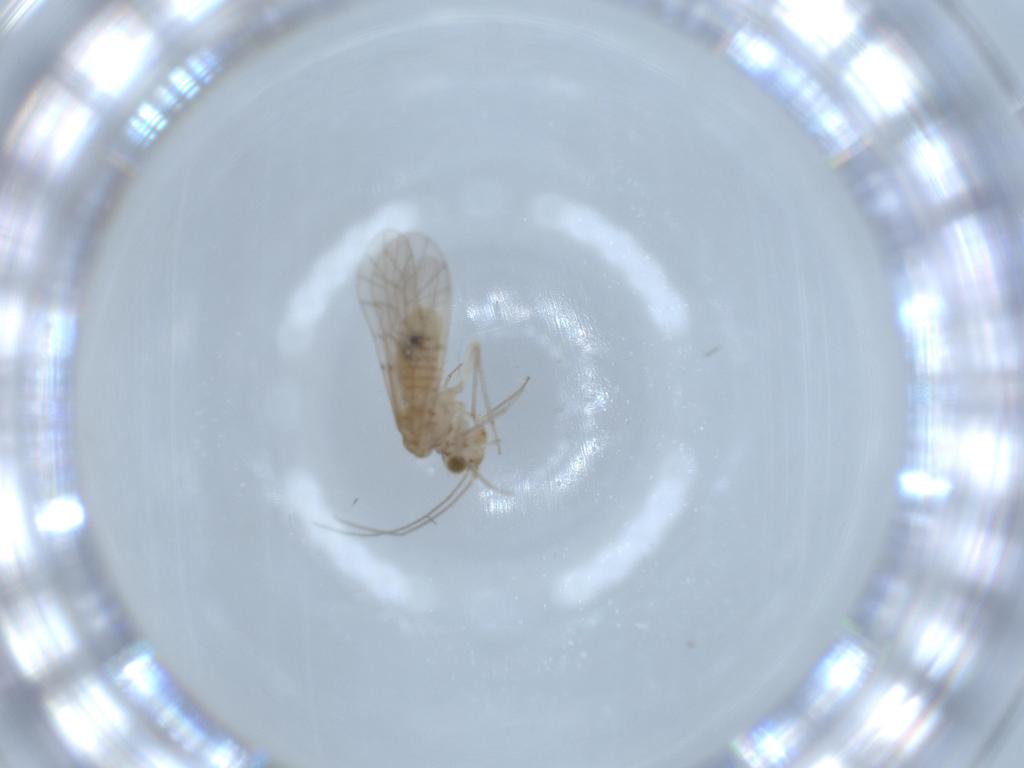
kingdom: Animalia
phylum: Arthropoda
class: Insecta
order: Psocodea
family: Lachesillidae
